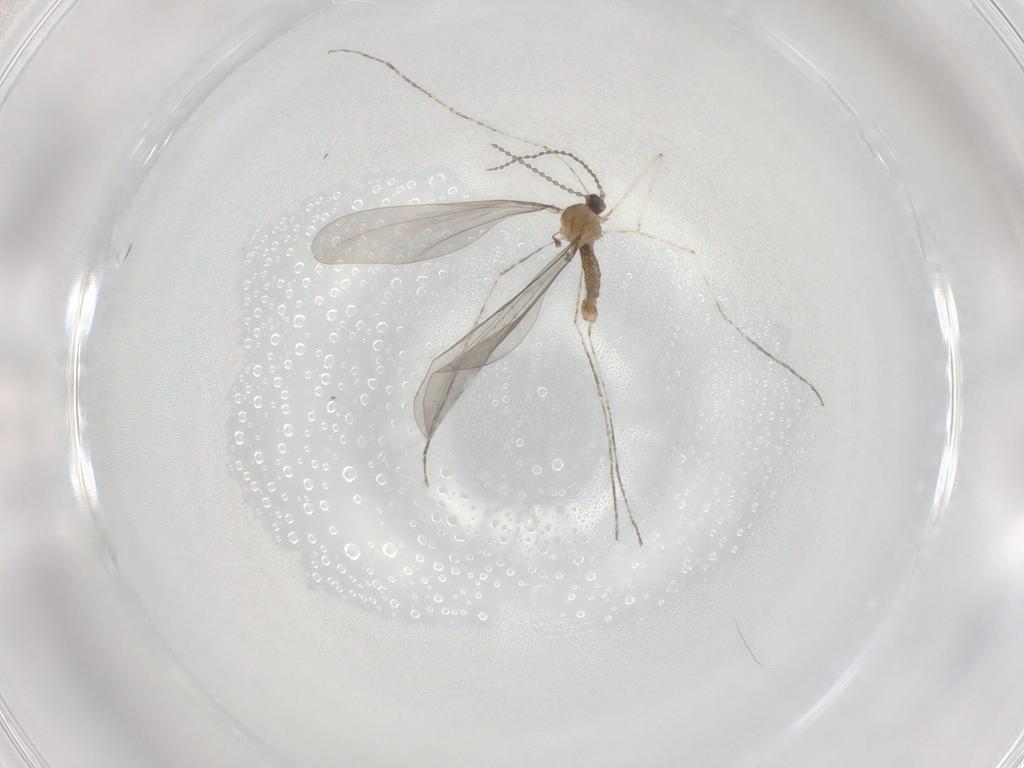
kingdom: Animalia
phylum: Arthropoda
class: Insecta
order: Diptera
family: Cecidomyiidae
